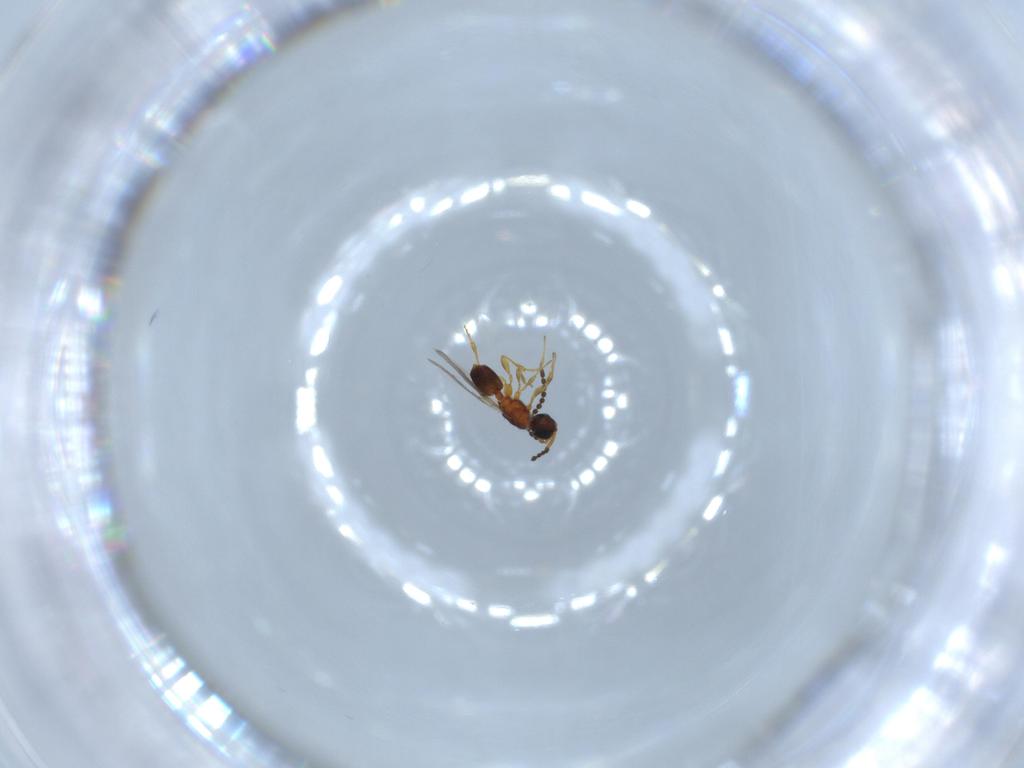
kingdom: Animalia
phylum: Arthropoda
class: Insecta
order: Hymenoptera
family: Diapriidae
